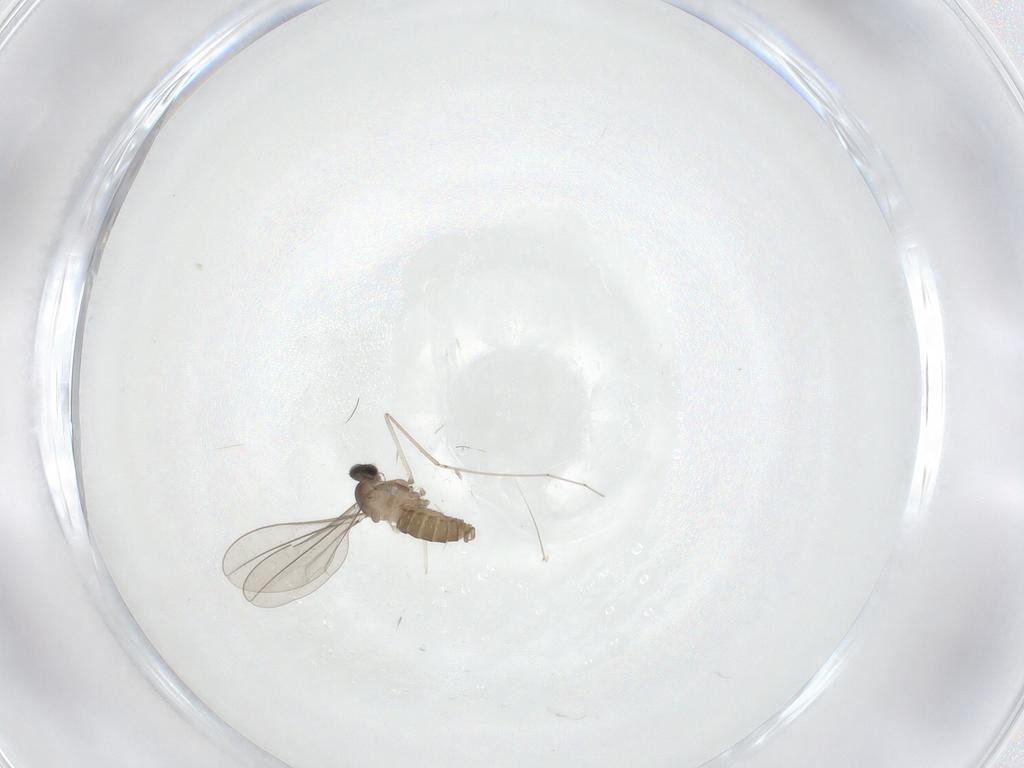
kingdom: Animalia
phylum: Arthropoda
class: Insecta
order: Diptera
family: Cecidomyiidae
